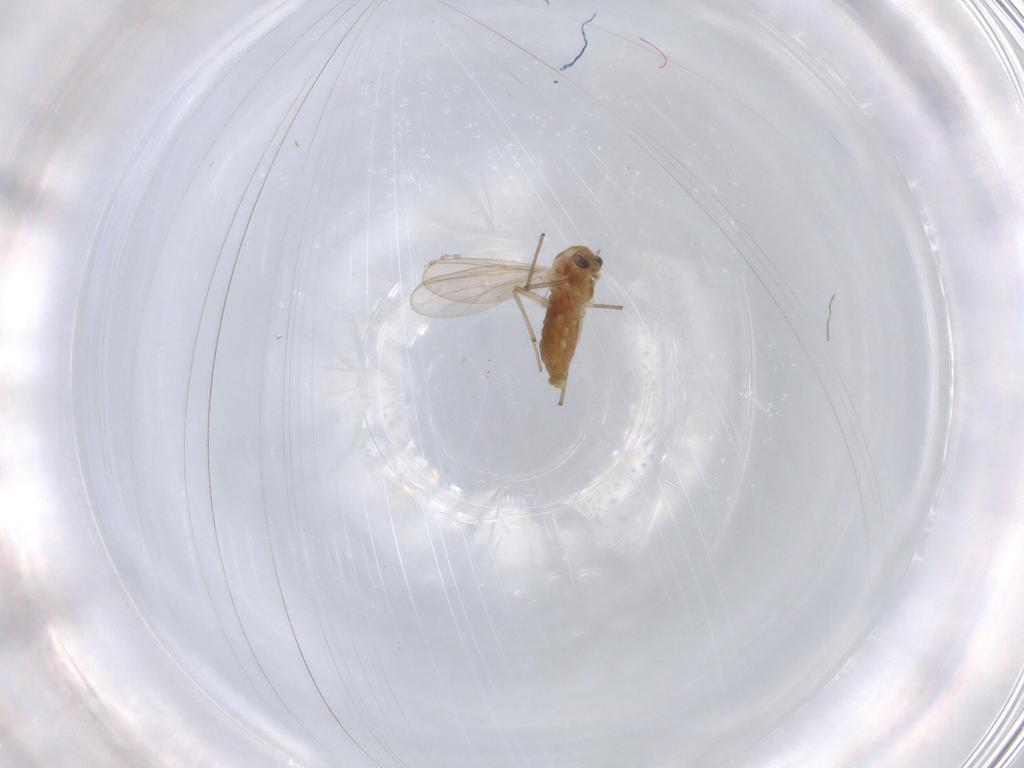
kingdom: Animalia
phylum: Arthropoda
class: Insecta
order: Diptera
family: Chironomidae
